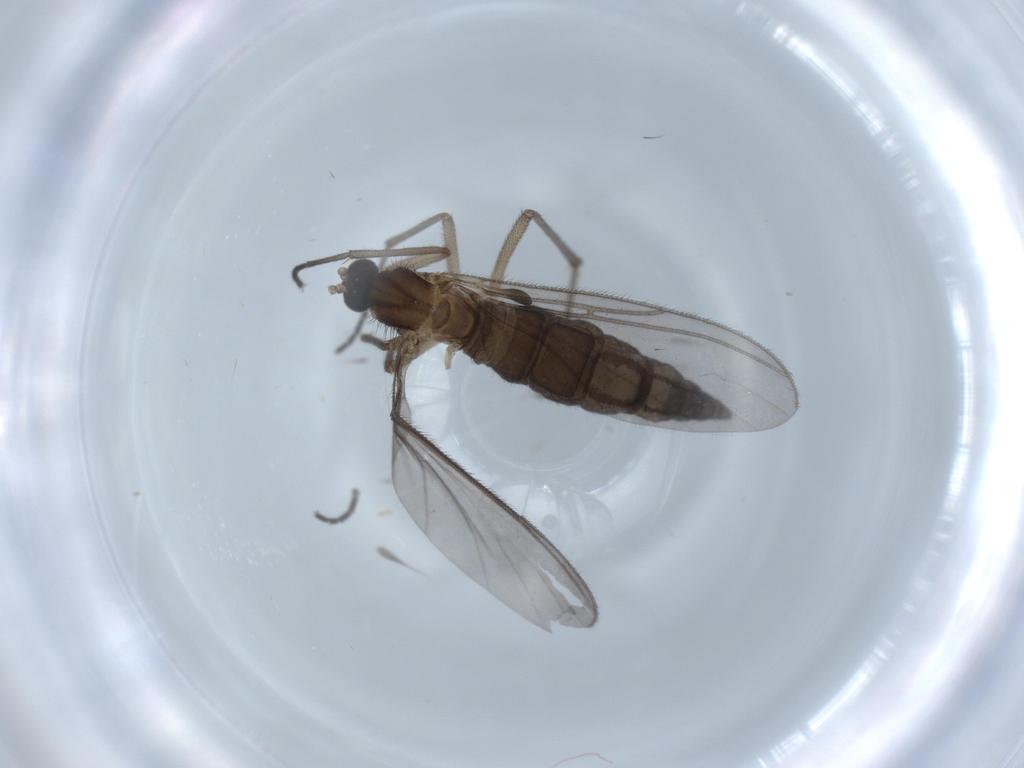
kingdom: Animalia
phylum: Arthropoda
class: Insecta
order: Diptera
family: Sciaridae
